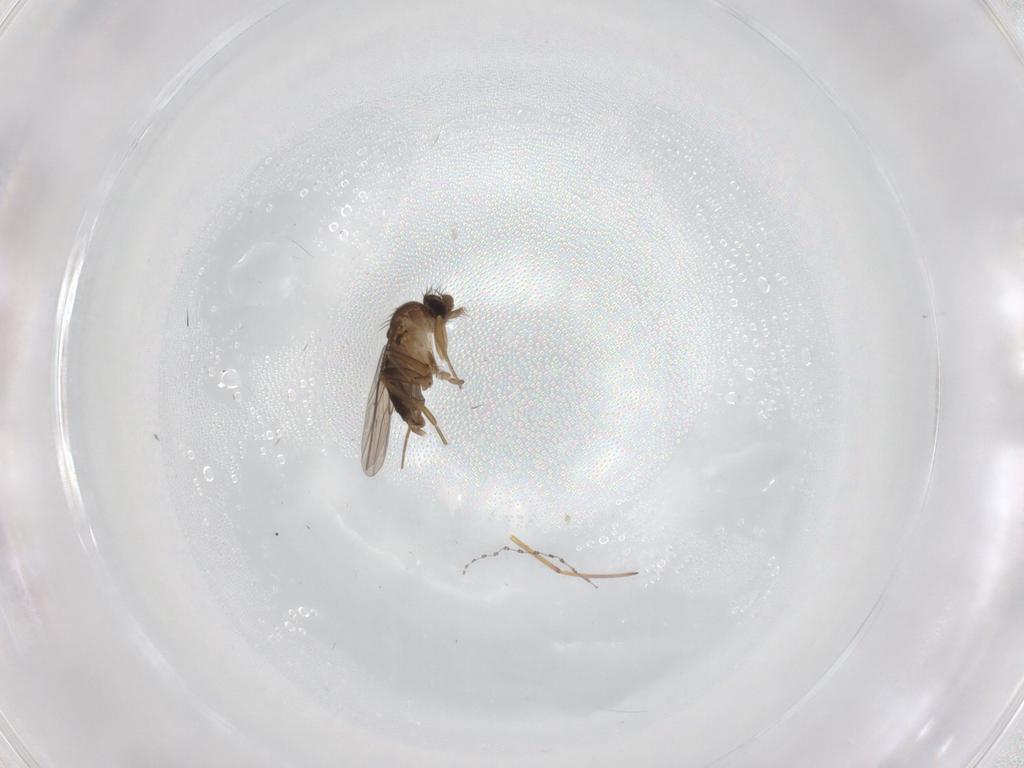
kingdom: Animalia
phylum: Arthropoda
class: Insecta
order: Diptera
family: Cecidomyiidae
